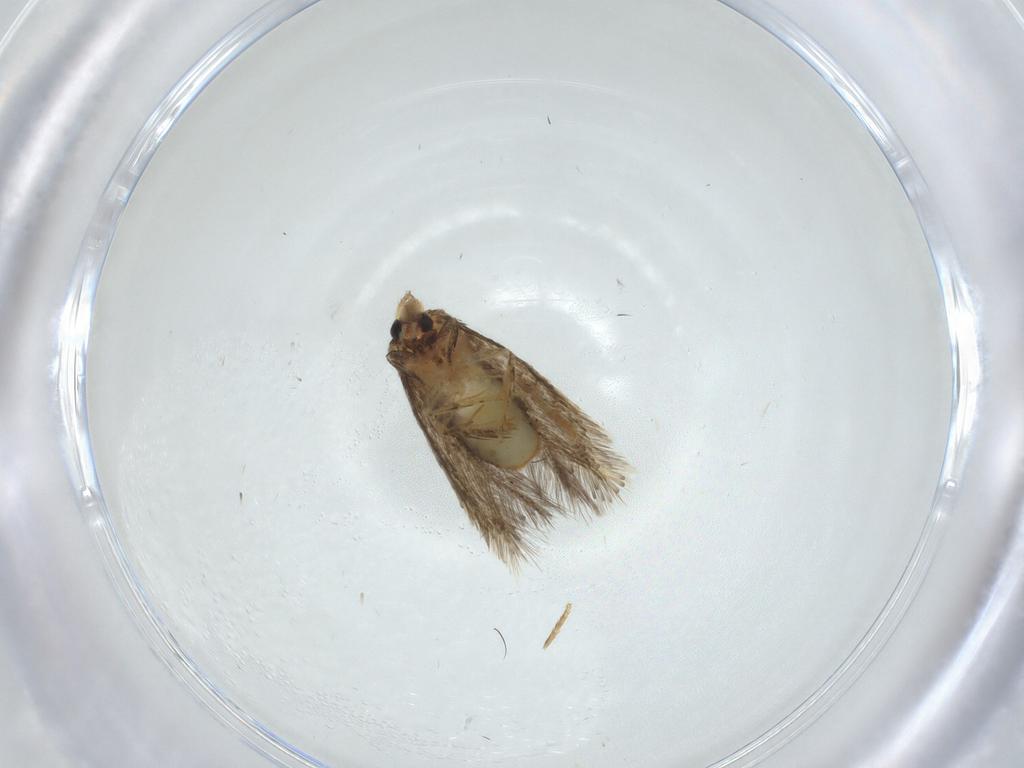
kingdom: Animalia
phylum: Arthropoda
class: Insecta
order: Lepidoptera
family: Nepticulidae
